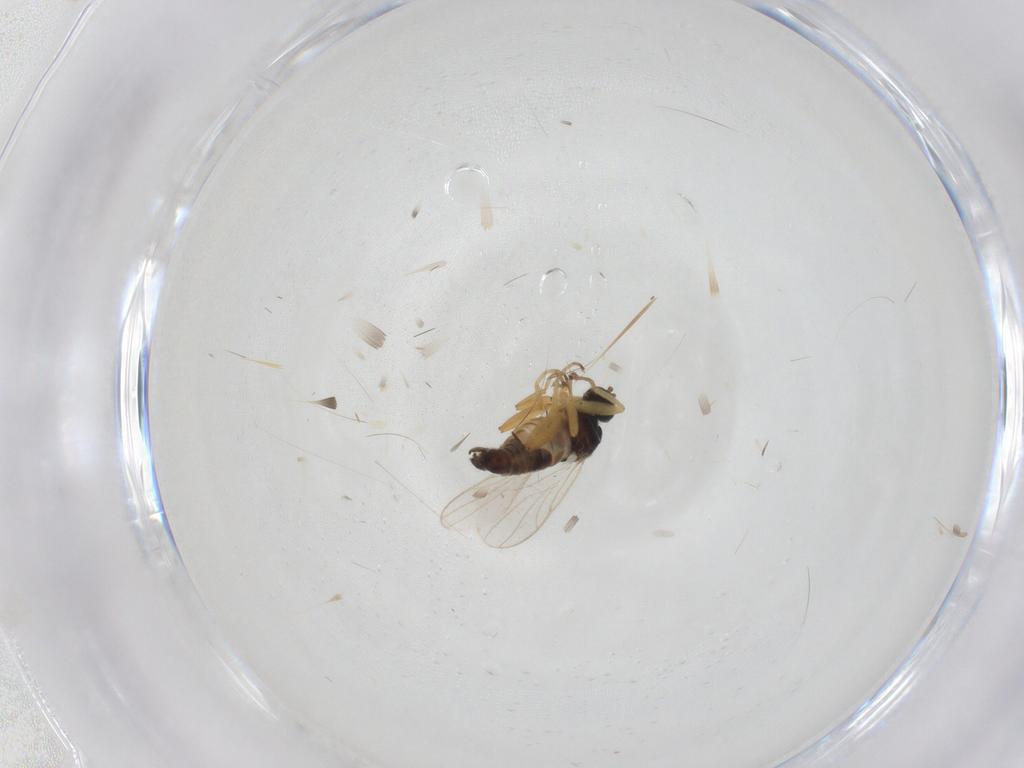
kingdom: Animalia
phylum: Arthropoda
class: Insecta
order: Diptera
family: Hybotidae
